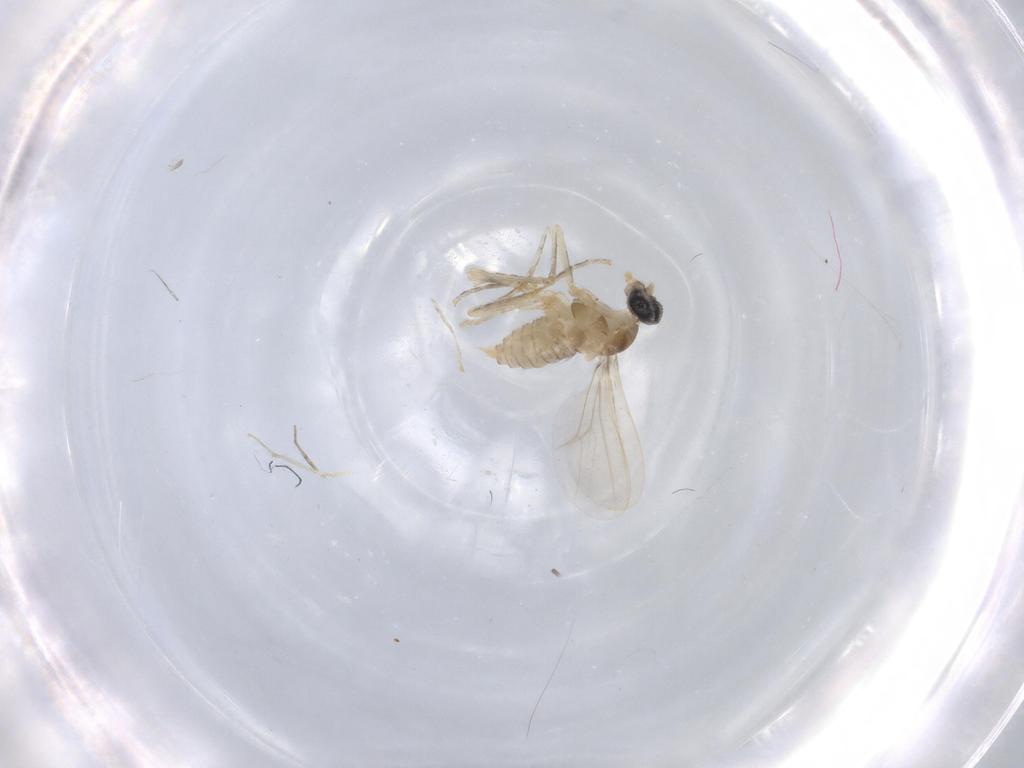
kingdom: Animalia
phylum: Arthropoda
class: Insecta
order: Diptera
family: Cecidomyiidae
